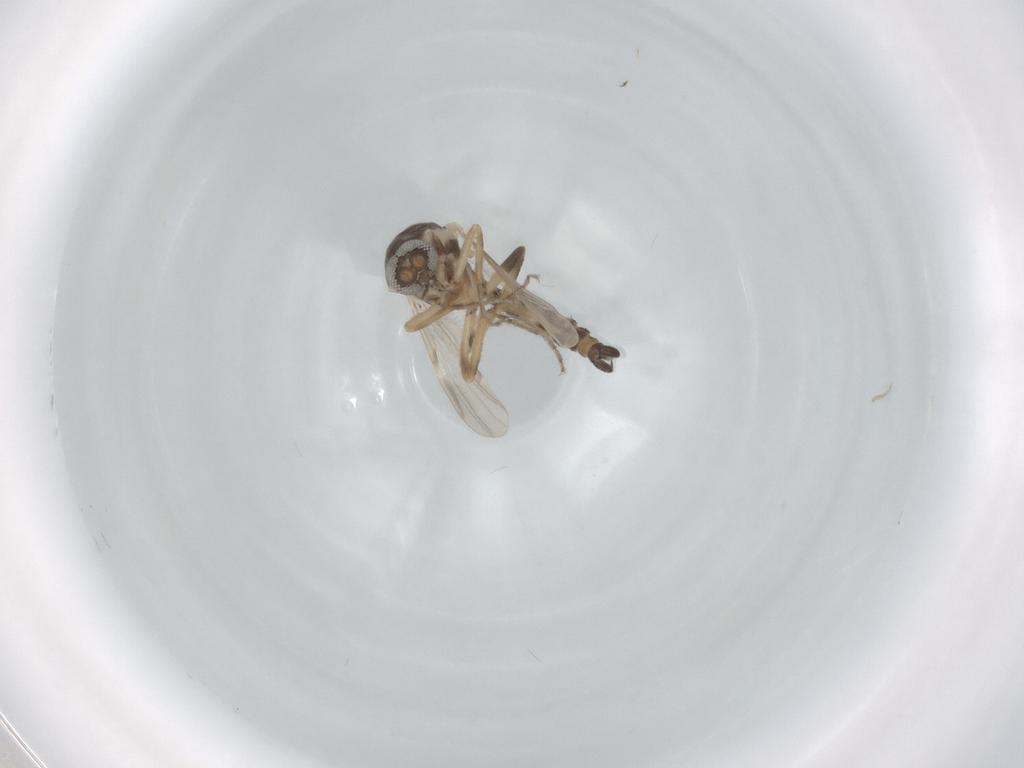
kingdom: Animalia
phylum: Arthropoda
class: Insecta
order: Diptera
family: Ceratopogonidae
